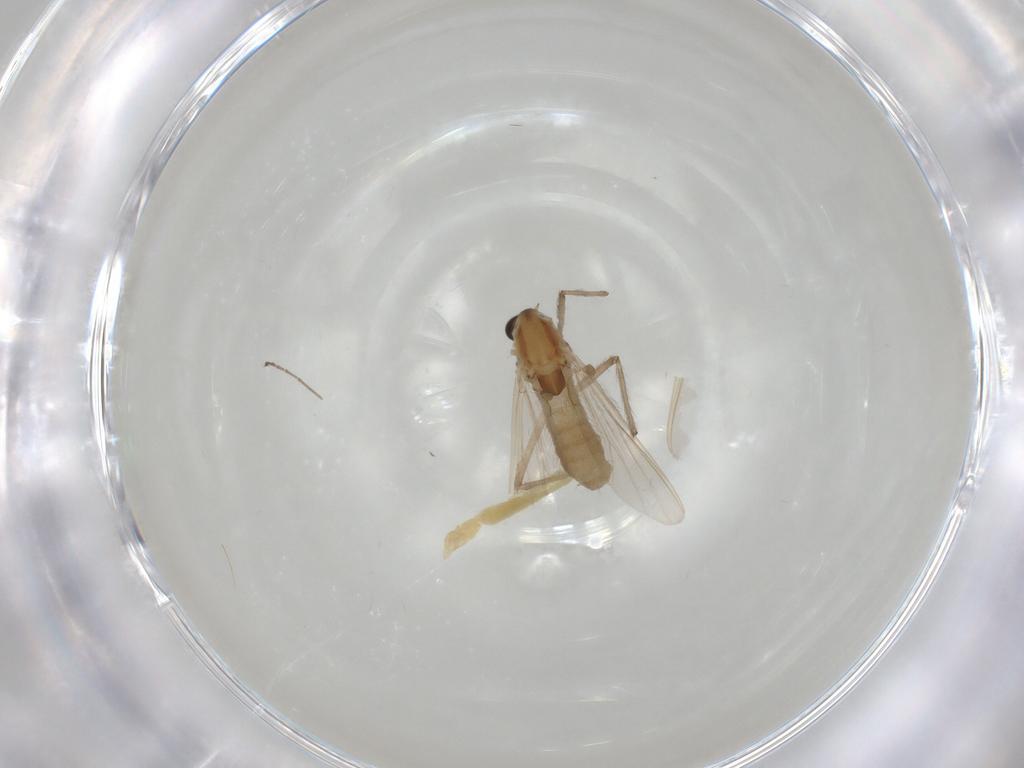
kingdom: Animalia
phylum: Arthropoda
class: Insecta
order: Diptera
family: Chironomidae
